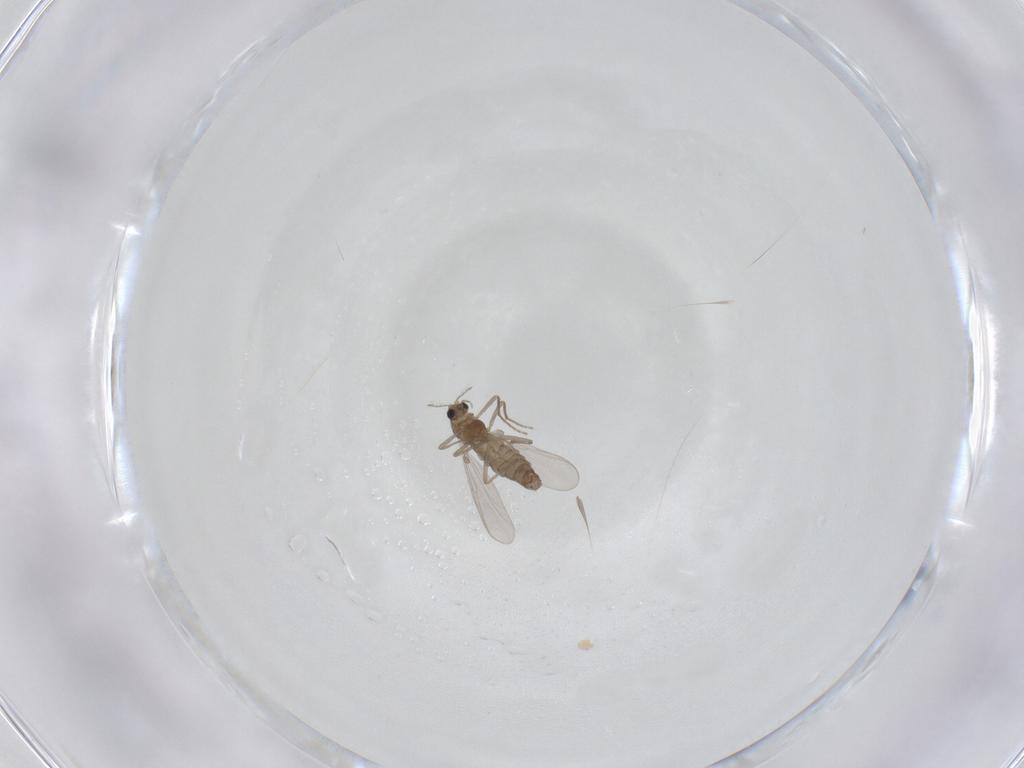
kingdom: Animalia
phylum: Arthropoda
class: Insecta
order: Diptera
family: Chironomidae
